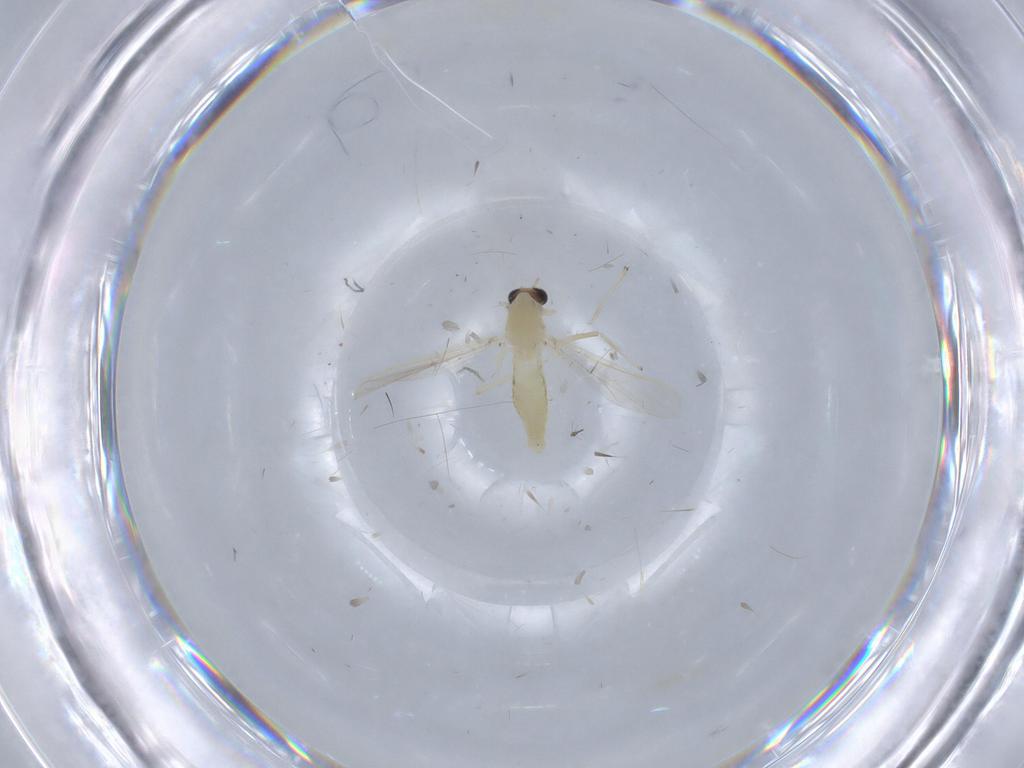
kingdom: Animalia
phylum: Arthropoda
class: Insecta
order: Diptera
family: Chironomidae
